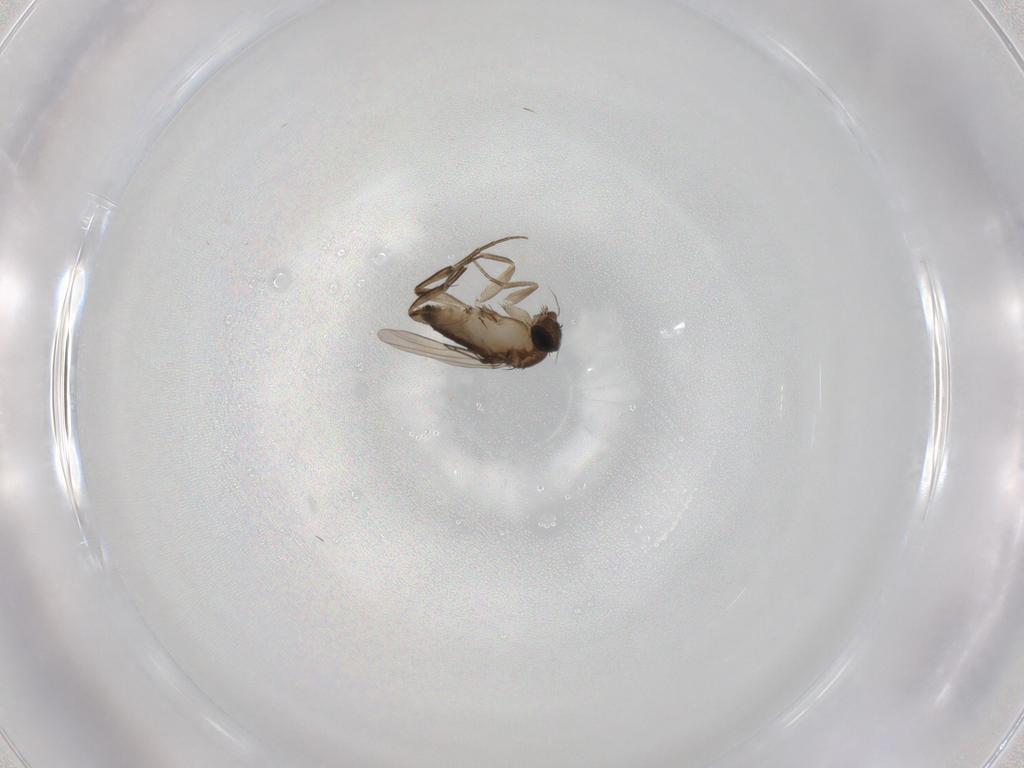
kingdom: Animalia
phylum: Arthropoda
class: Insecta
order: Diptera
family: Phoridae
